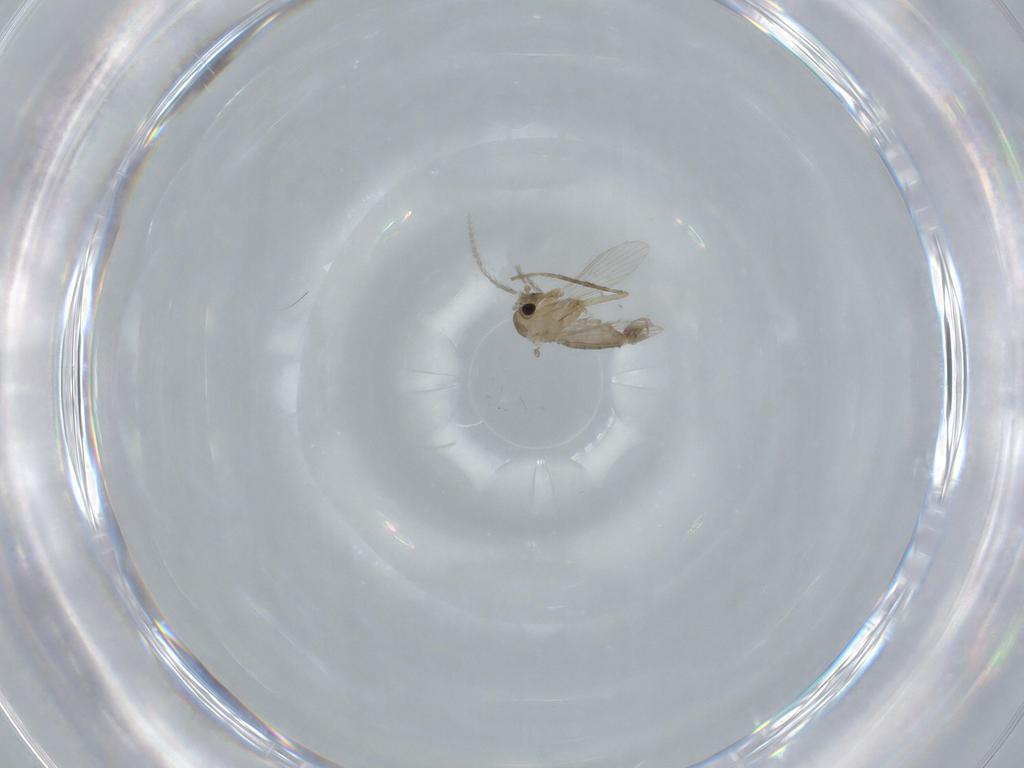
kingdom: Animalia
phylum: Arthropoda
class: Insecta
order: Diptera
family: Psychodidae
